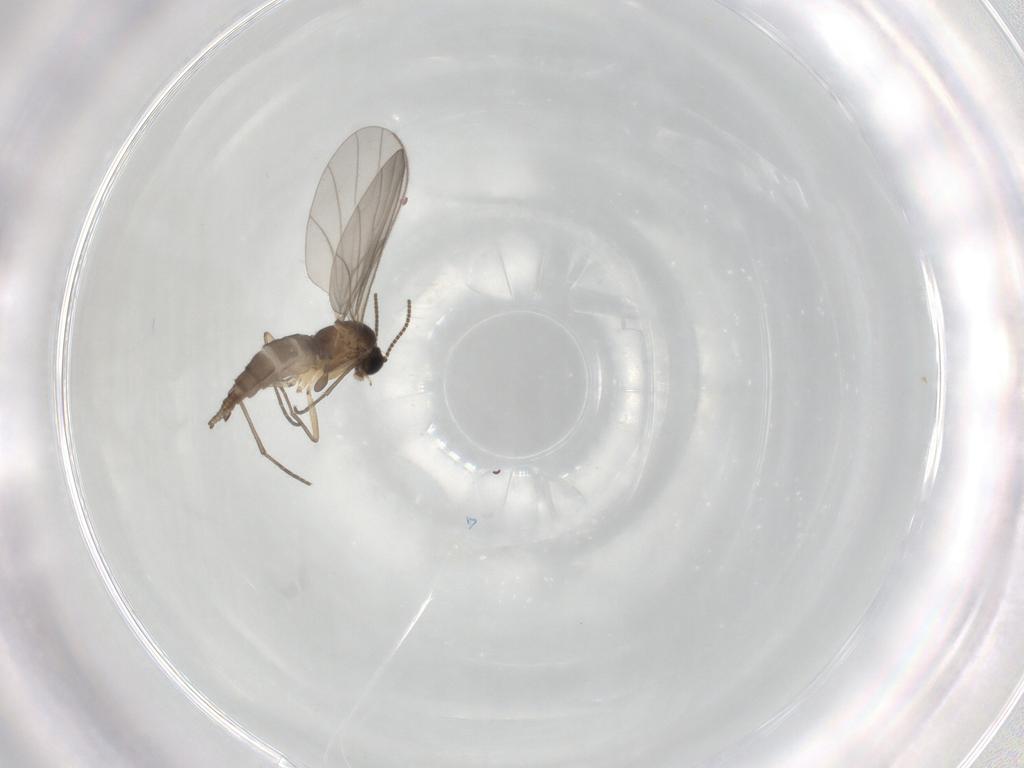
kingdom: Animalia
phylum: Arthropoda
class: Insecta
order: Diptera
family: Sciaridae
